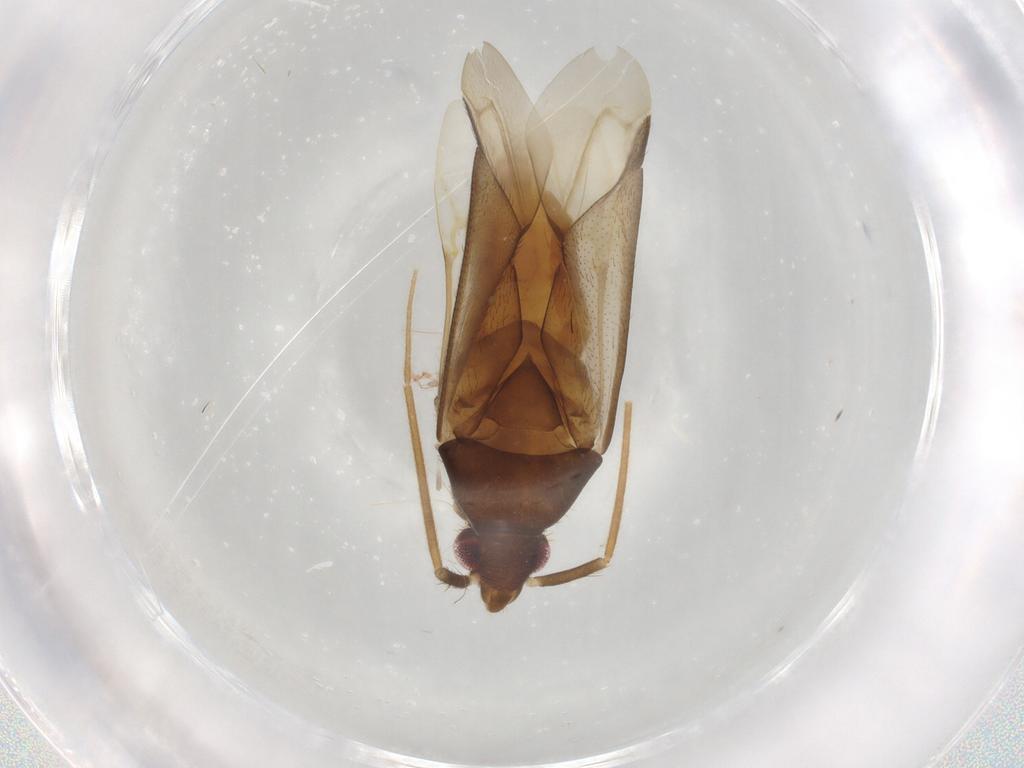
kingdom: Animalia
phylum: Arthropoda
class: Insecta
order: Hemiptera
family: Miridae
